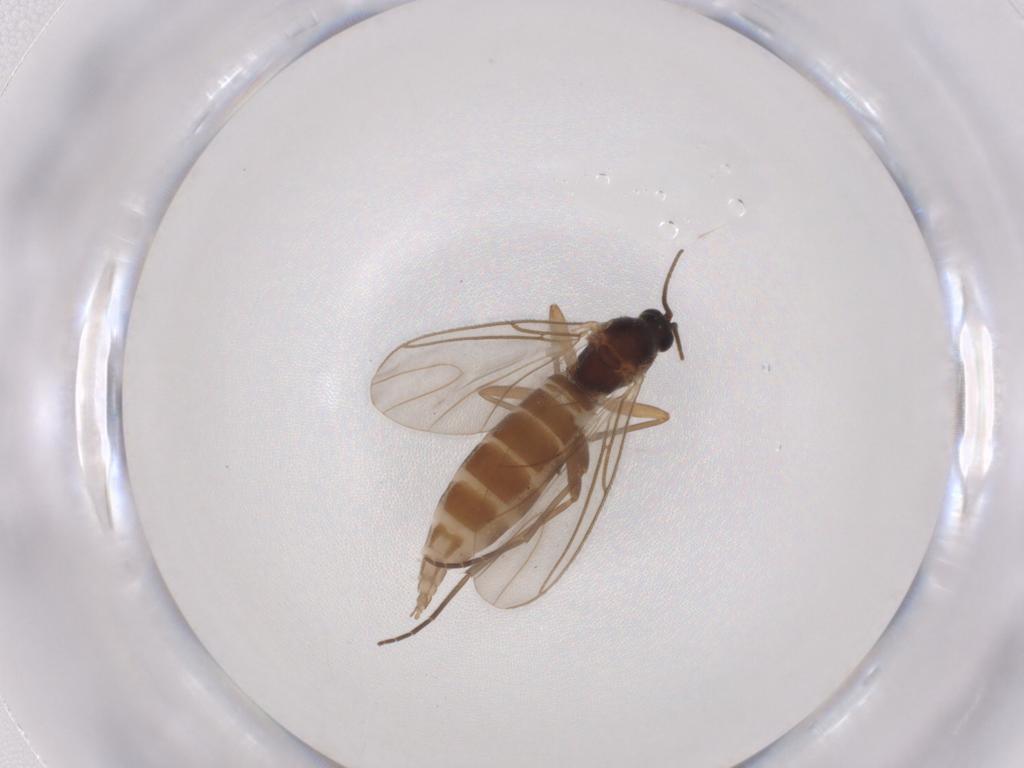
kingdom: Animalia
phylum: Arthropoda
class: Insecta
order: Diptera
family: Sciaridae
